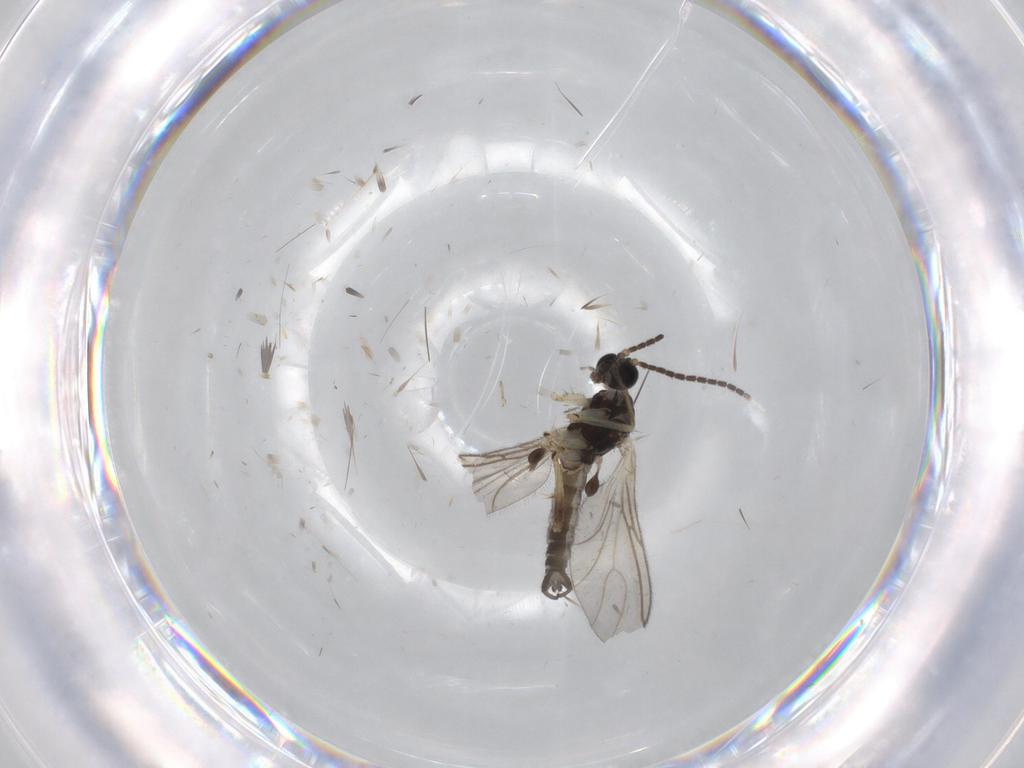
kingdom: Animalia
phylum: Arthropoda
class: Insecta
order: Diptera
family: Sciaridae
